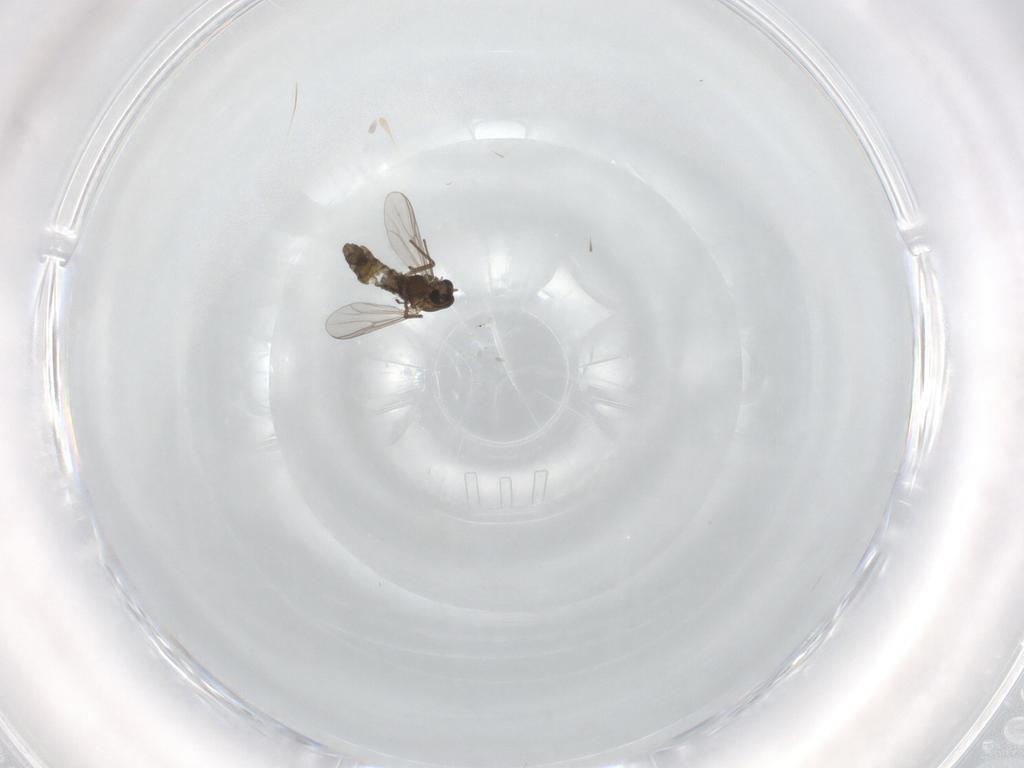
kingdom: Animalia
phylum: Arthropoda
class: Insecta
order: Diptera
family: Chironomidae
